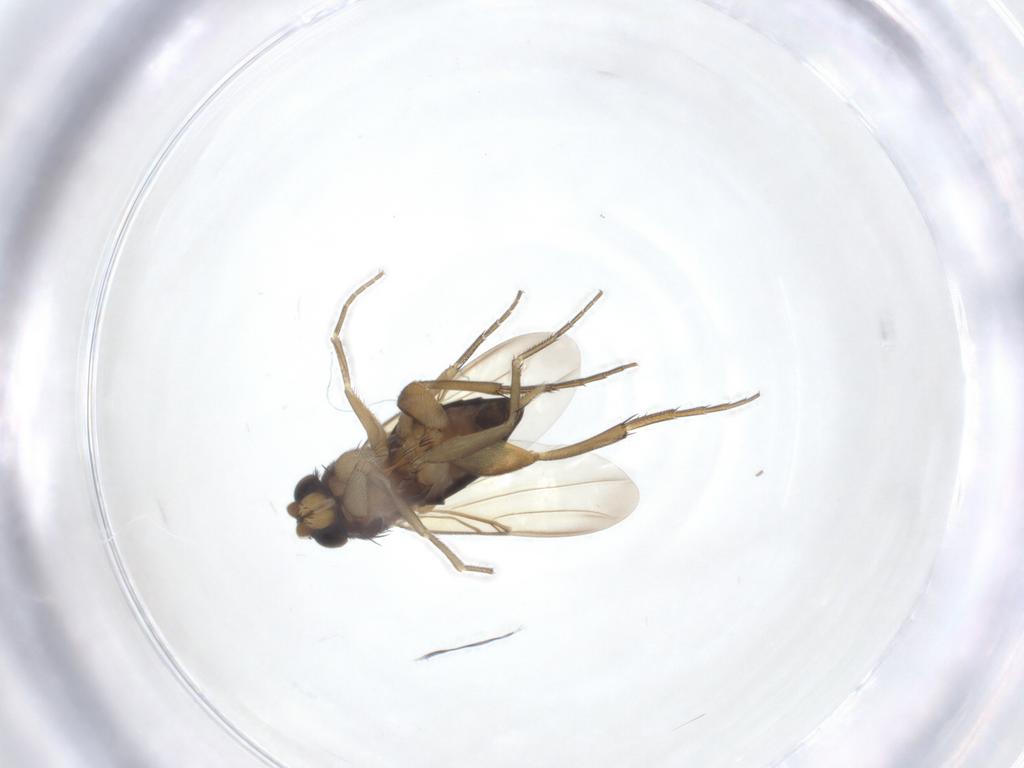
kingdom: Animalia
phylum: Arthropoda
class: Insecta
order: Diptera
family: Phoridae
